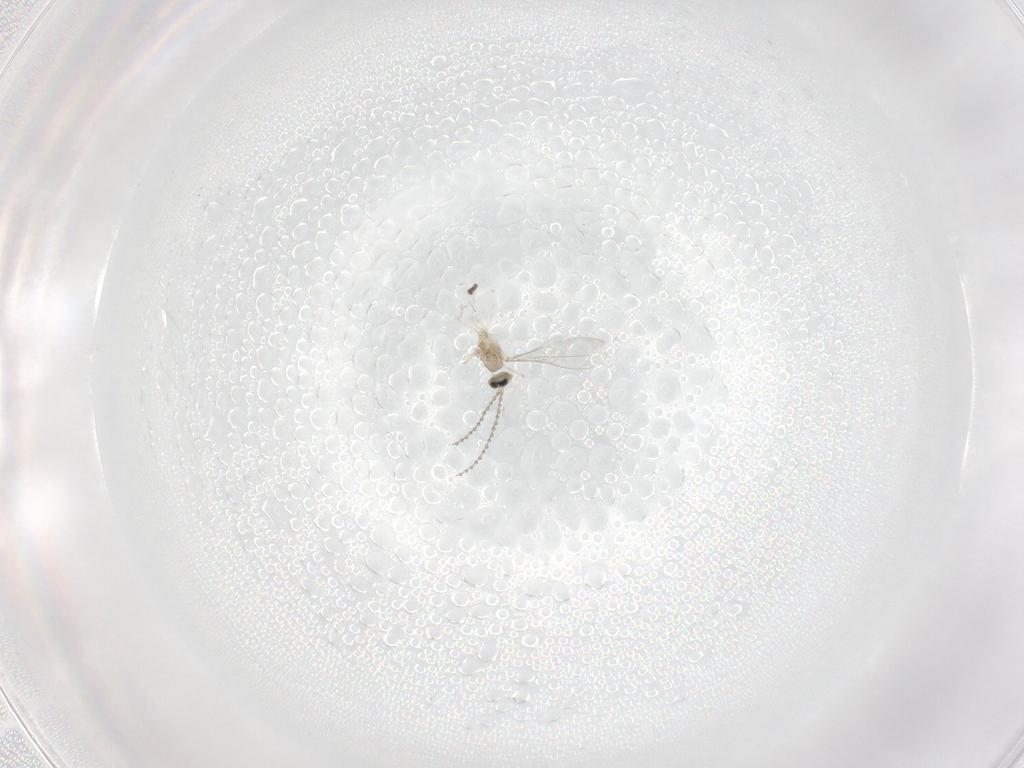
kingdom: Animalia
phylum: Arthropoda
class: Insecta
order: Diptera
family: Cecidomyiidae
